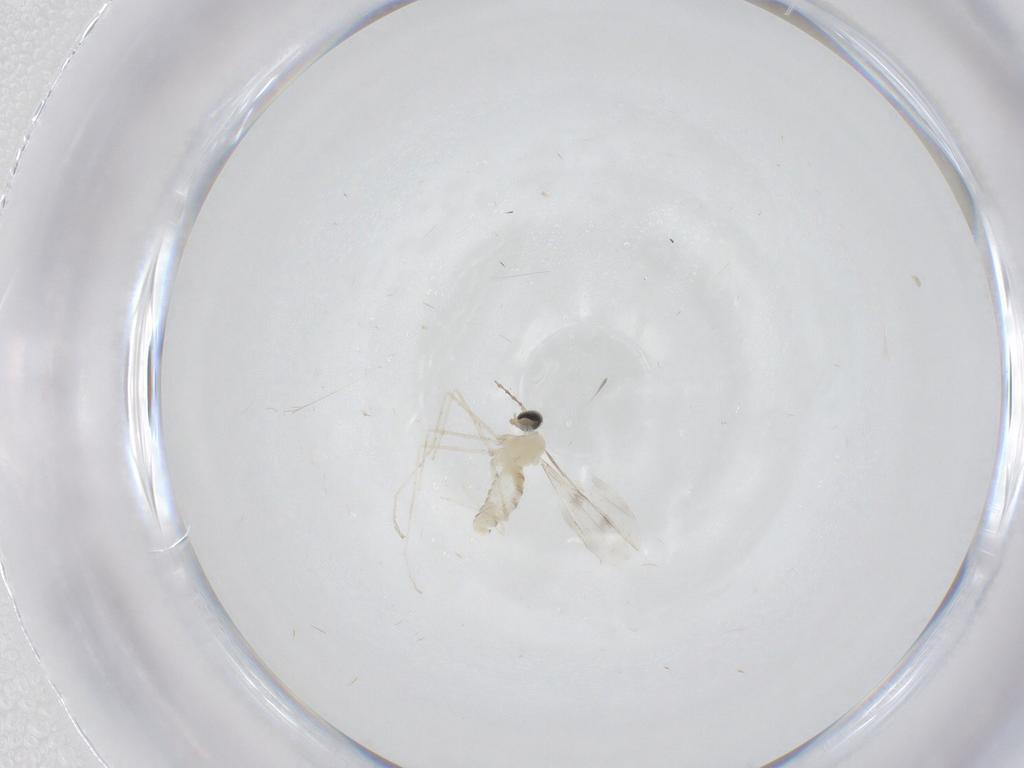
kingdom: Animalia
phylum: Arthropoda
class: Insecta
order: Diptera
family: Cecidomyiidae
